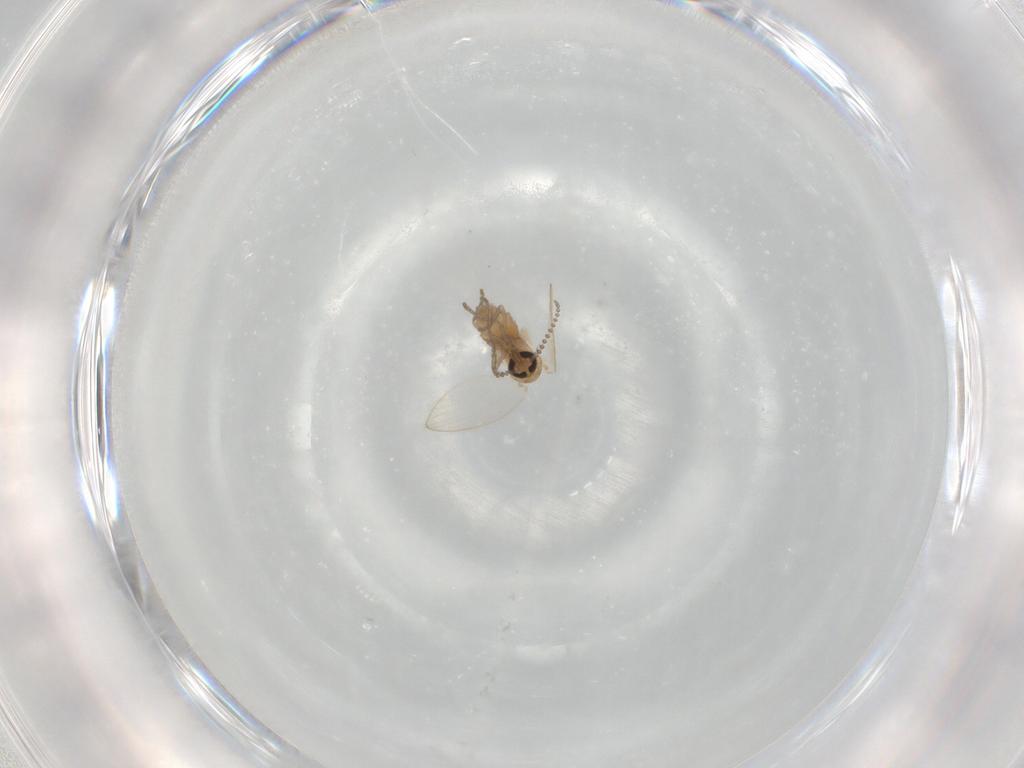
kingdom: Animalia
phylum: Arthropoda
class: Insecta
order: Diptera
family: Psychodidae
